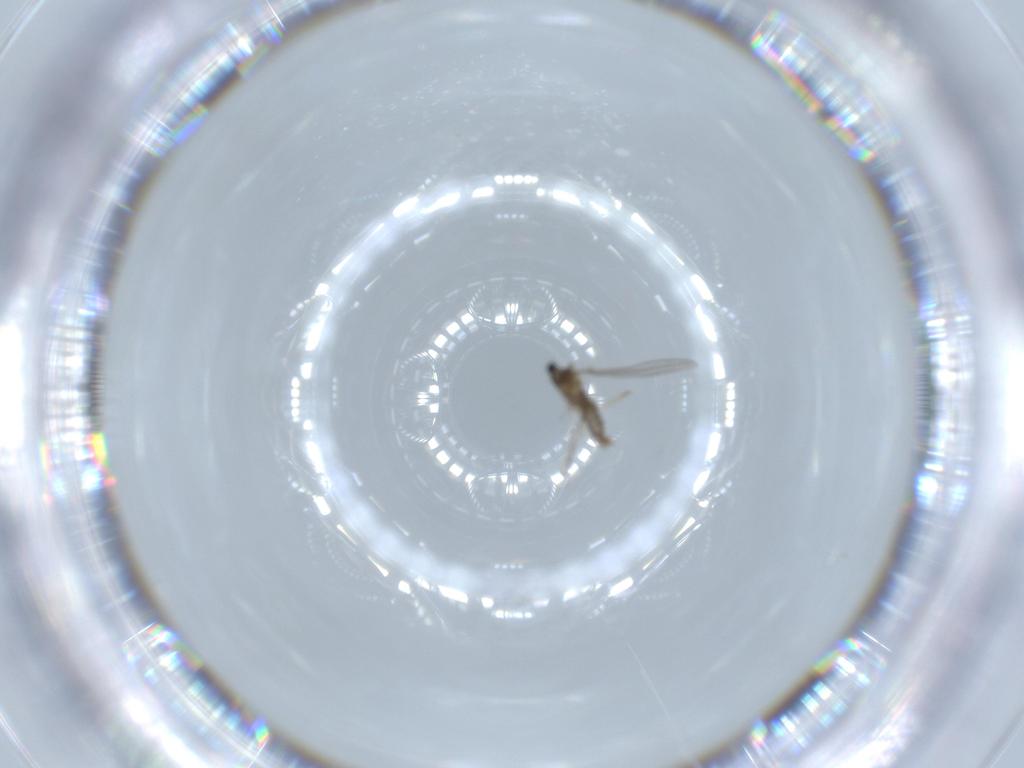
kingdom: Animalia
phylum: Arthropoda
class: Insecta
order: Diptera
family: Cecidomyiidae
